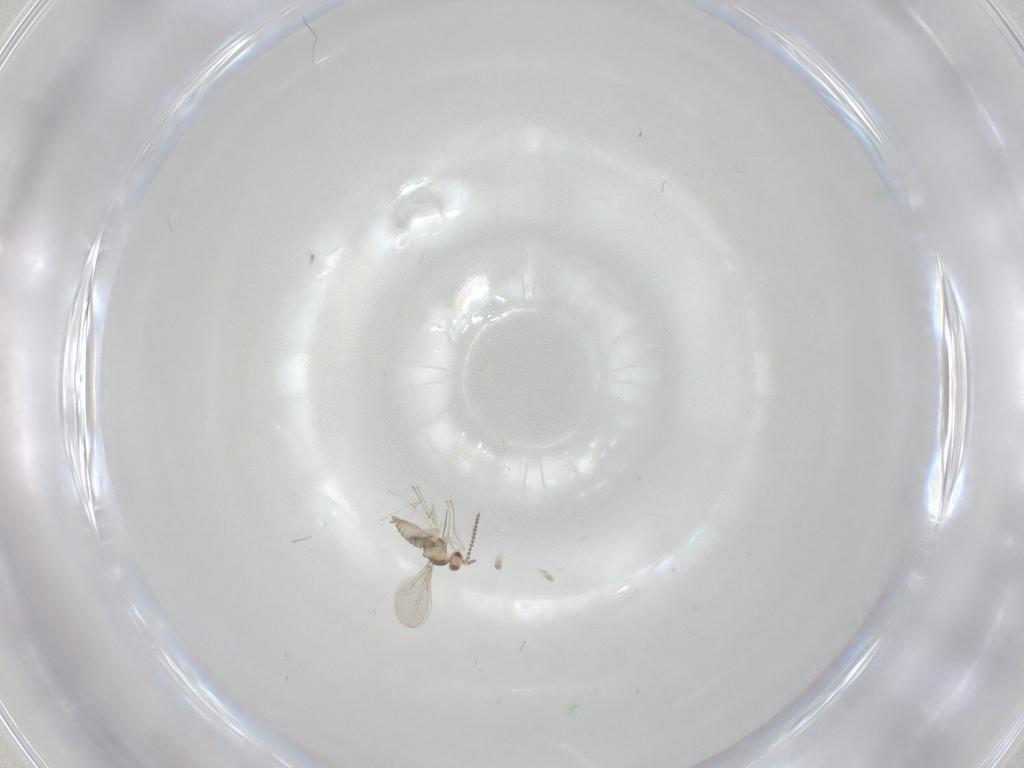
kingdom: Animalia
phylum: Arthropoda
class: Insecta
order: Diptera
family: Cecidomyiidae
